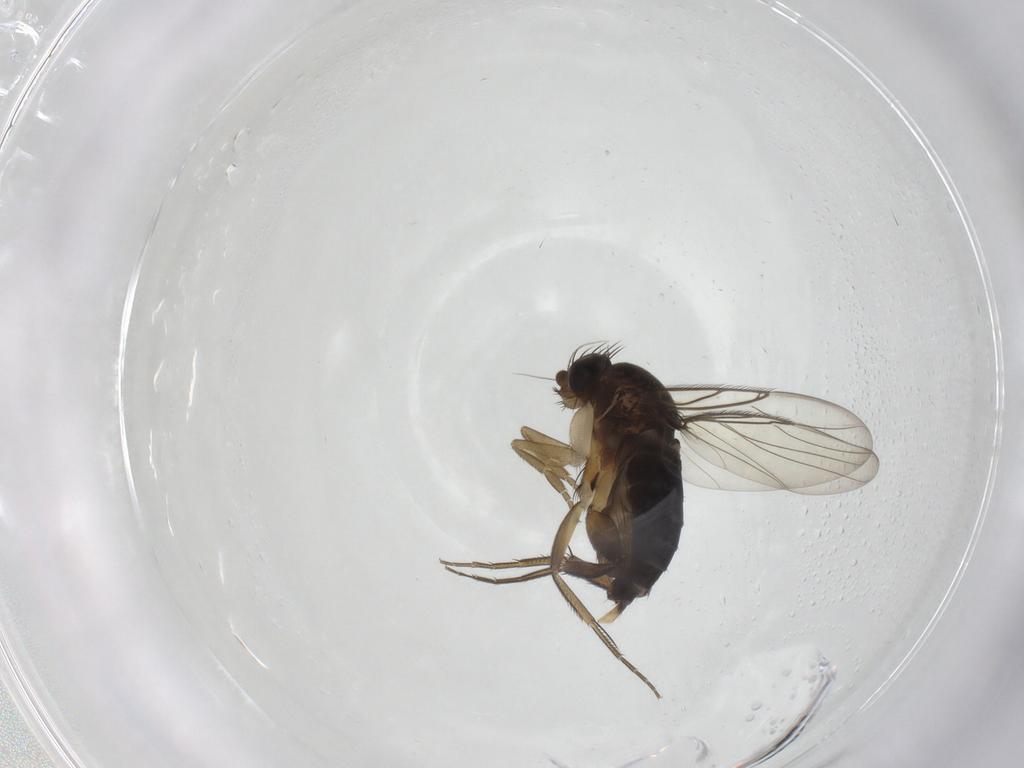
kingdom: Animalia
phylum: Arthropoda
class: Insecta
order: Diptera
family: Phoridae
